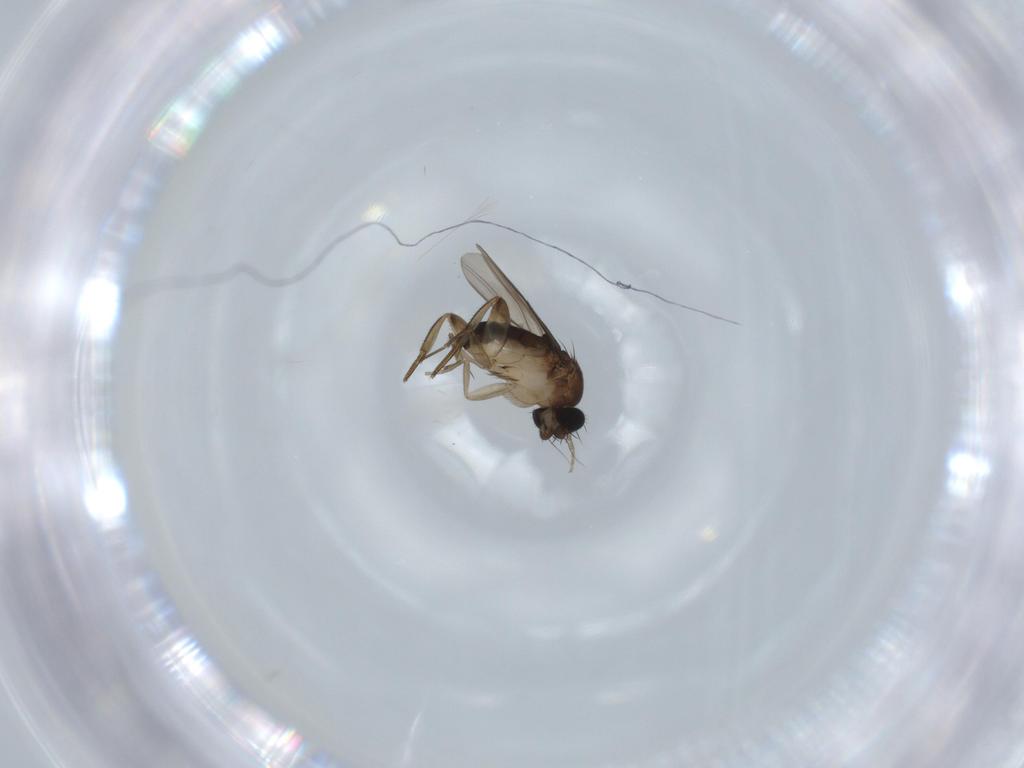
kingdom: Animalia
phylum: Arthropoda
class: Insecta
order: Diptera
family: Phoridae
